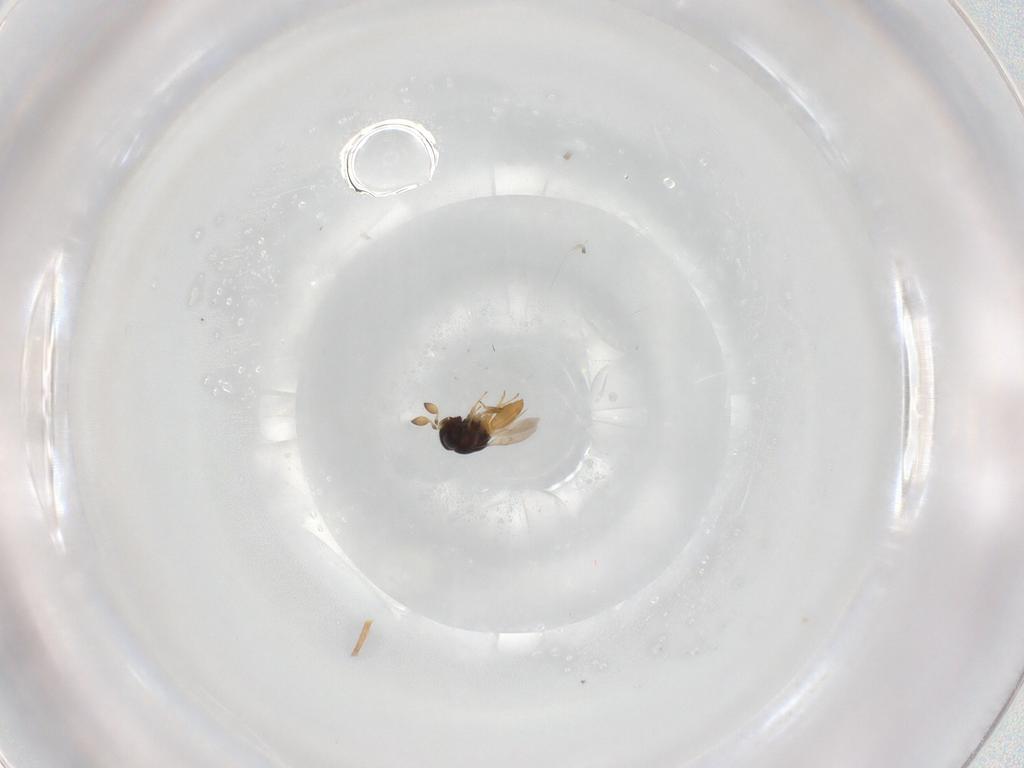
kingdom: Animalia
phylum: Arthropoda
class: Insecta
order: Hymenoptera
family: Scelionidae
